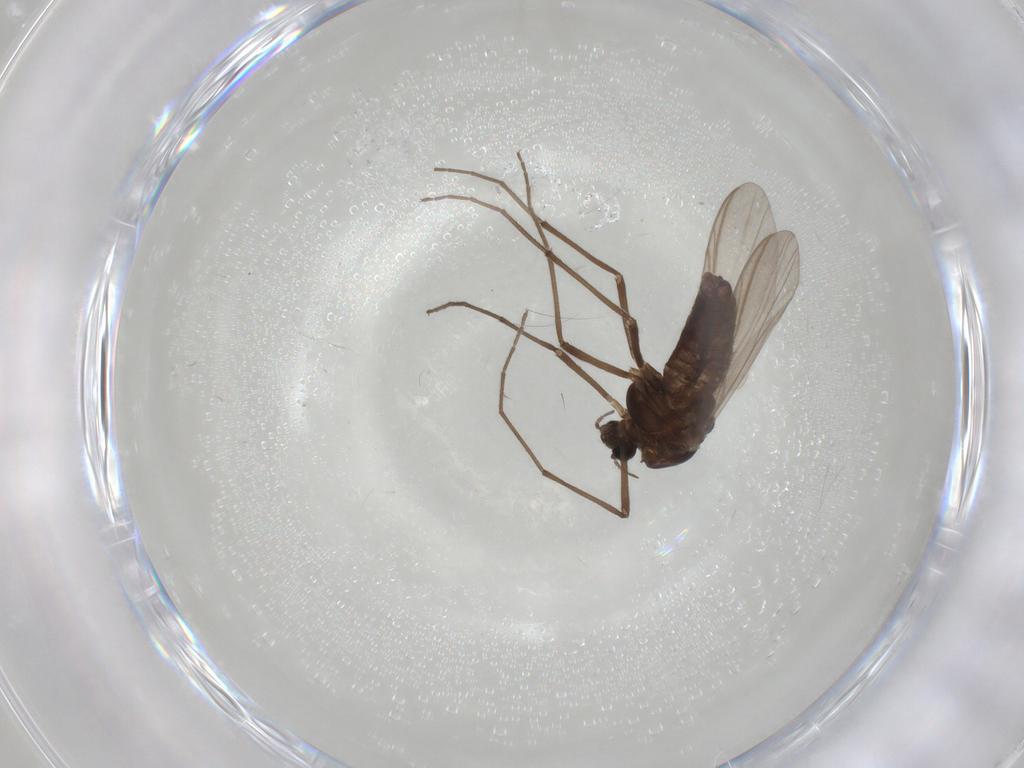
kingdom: Animalia
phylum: Arthropoda
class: Insecta
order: Diptera
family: Chironomidae
